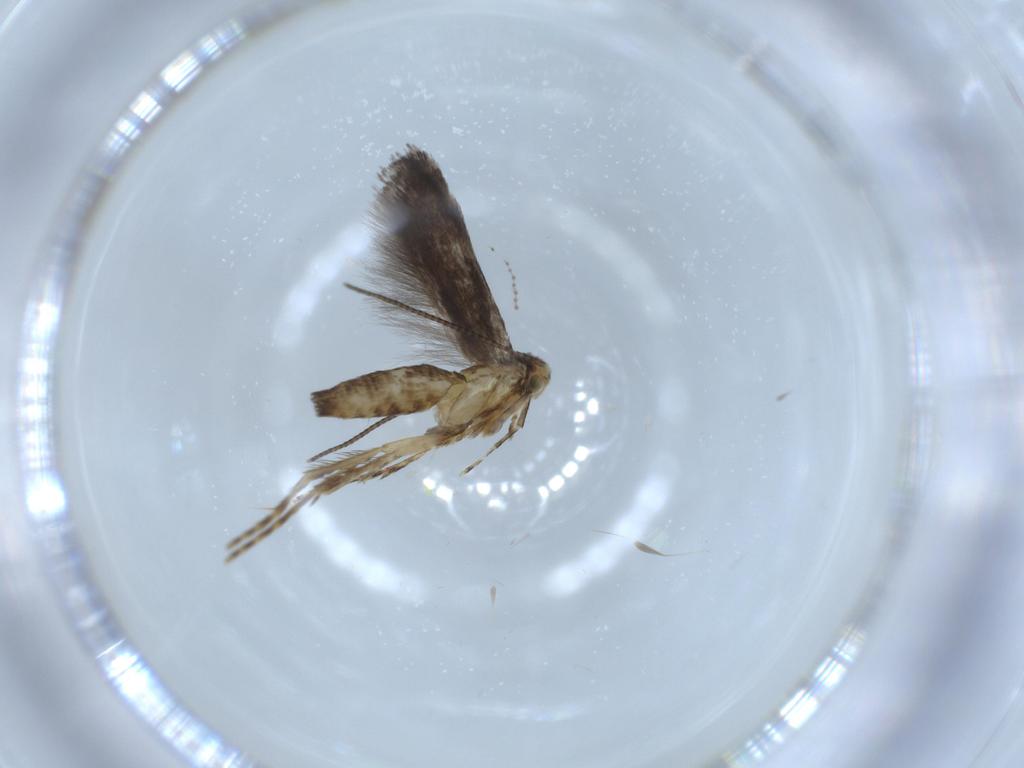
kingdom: Animalia
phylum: Arthropoda
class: Insecta
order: Lepidoptera
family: Gracillariidae
